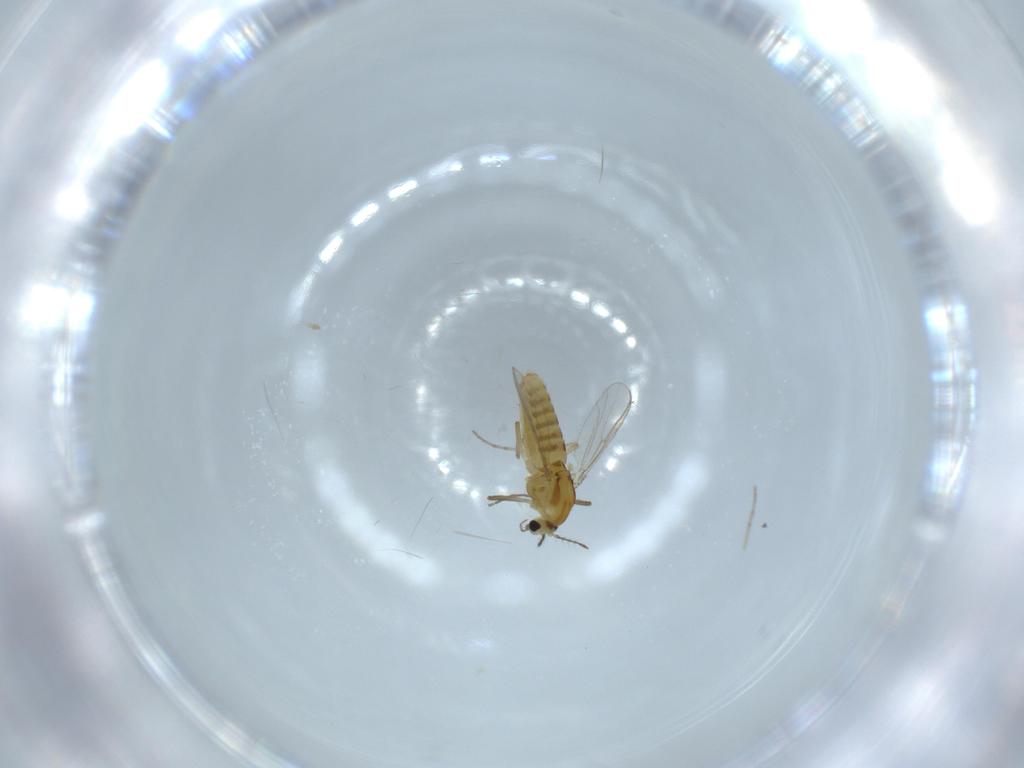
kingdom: Animalia
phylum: Arthropoda
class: Insecta
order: Diptera
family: Chironomidae
